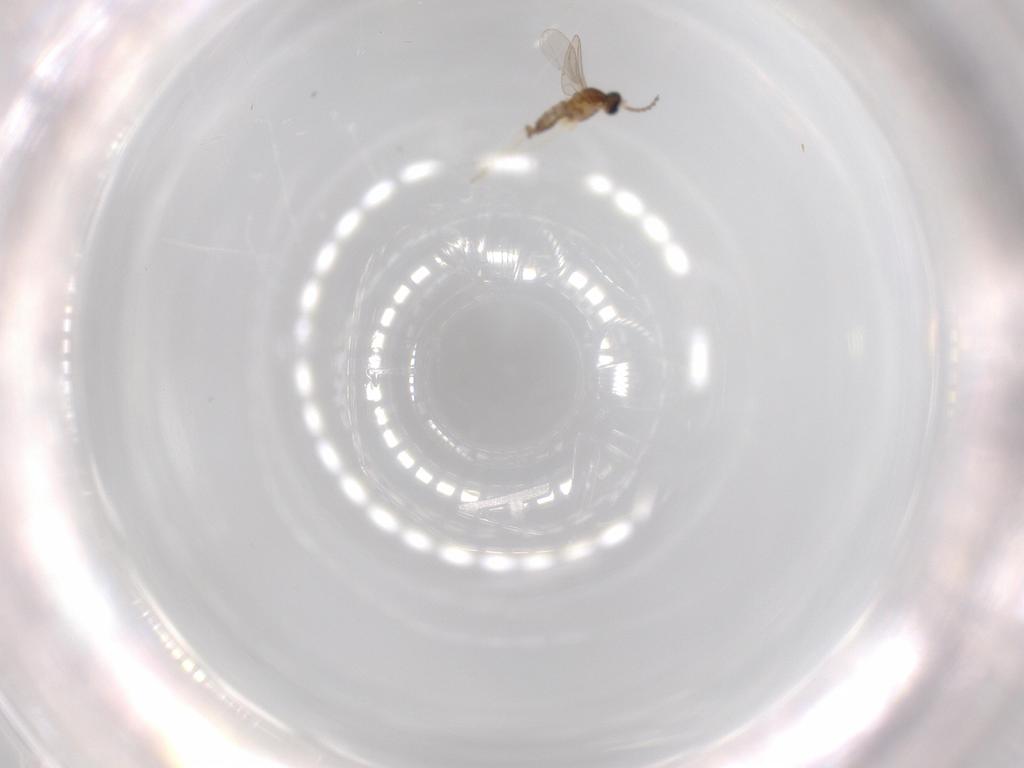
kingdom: Animalia
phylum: Arthropoda
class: Insecta
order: Diptera
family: Cecidomyiidae
